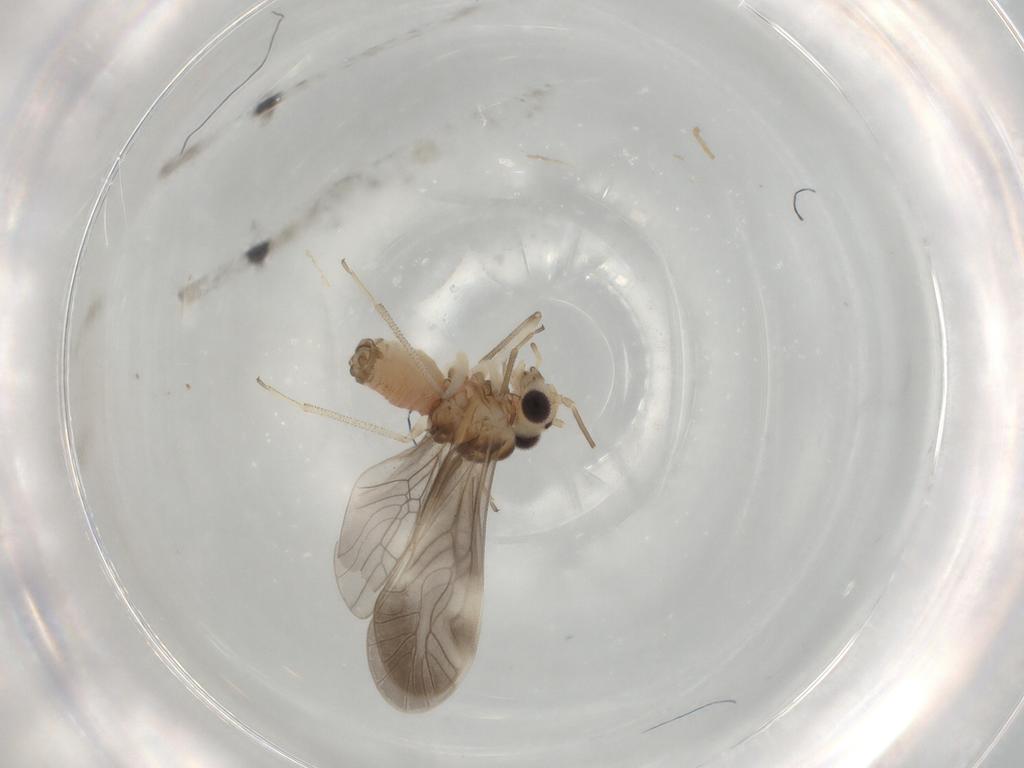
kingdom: Animalia
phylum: Arthropoda
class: Insecta
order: Psocodea
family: Caeciliusidae
